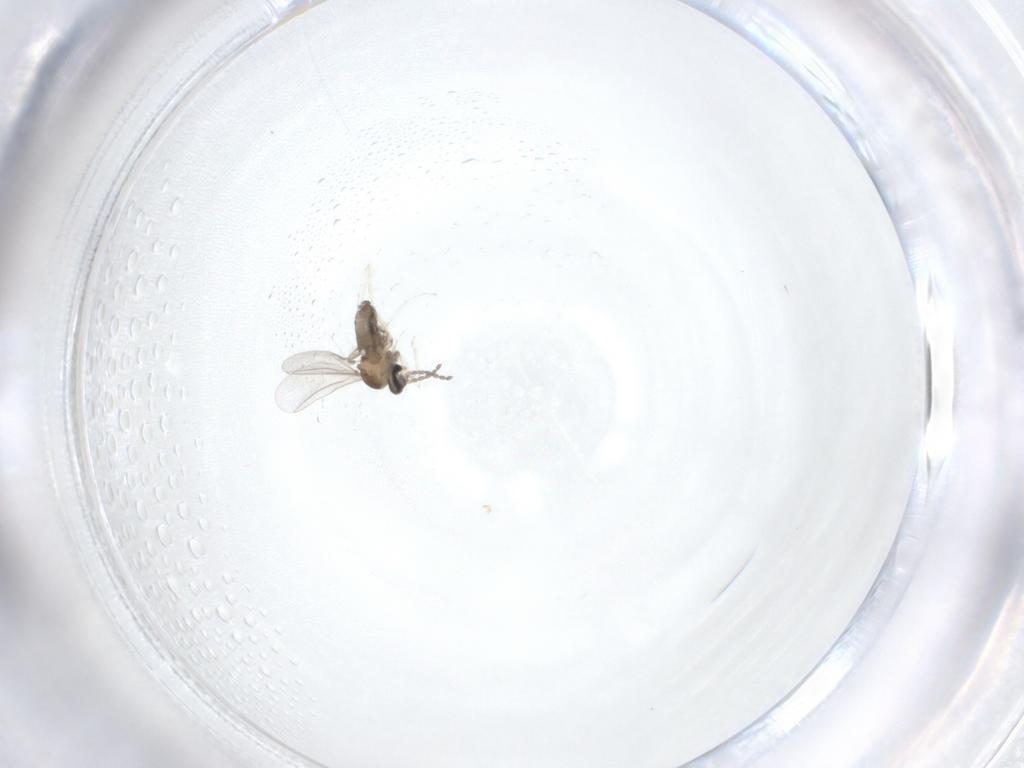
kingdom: Animalia
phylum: Arthropoda
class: Insecta
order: Diptera
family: Cecidomyiidae
